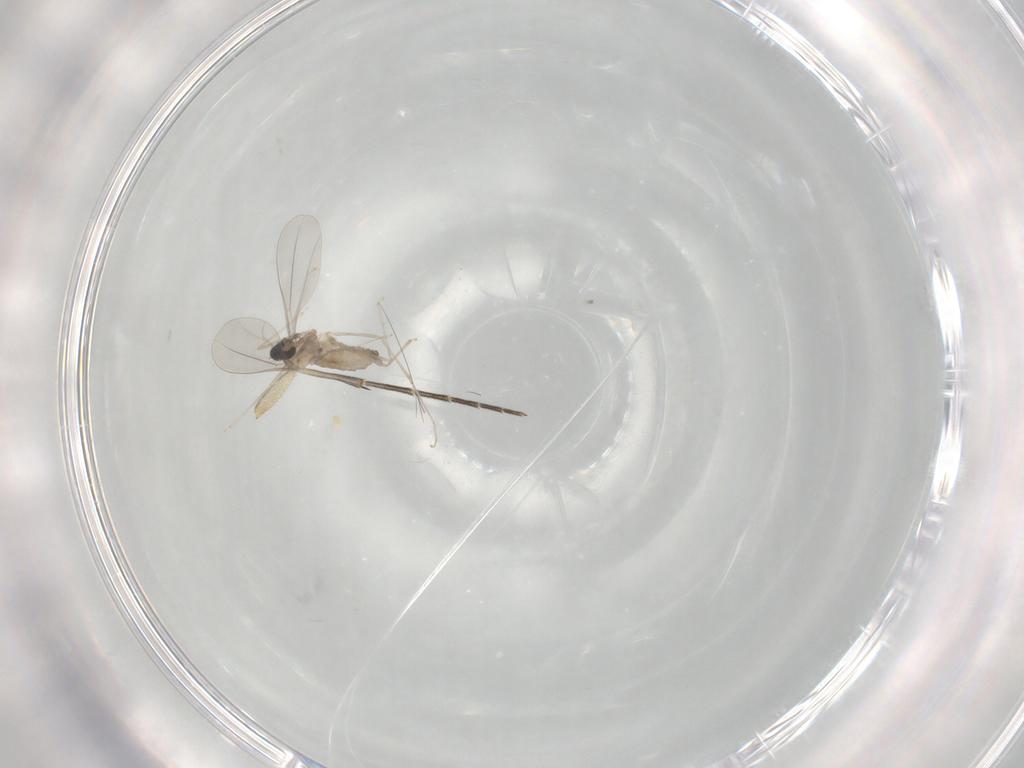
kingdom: Animalia
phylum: Arthropoda
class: Insecta
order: Diptera
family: Cecidomyiidae
